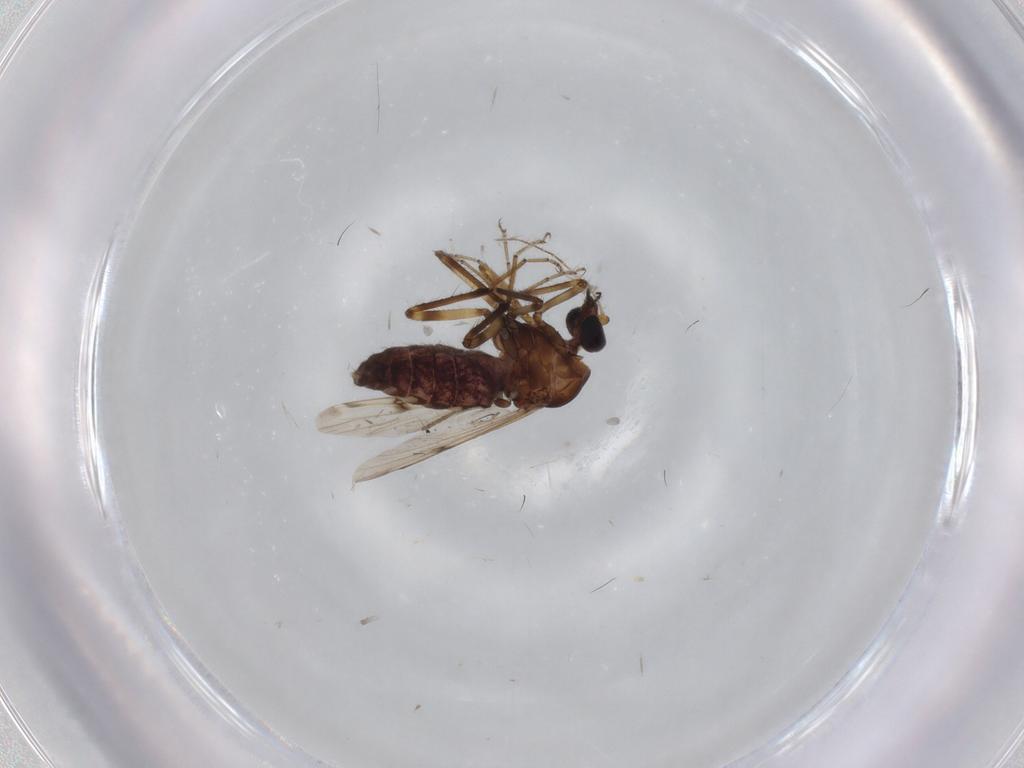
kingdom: Animalia
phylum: Arthropoda
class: Insecta
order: Diptera
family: Ceratopogonidae
